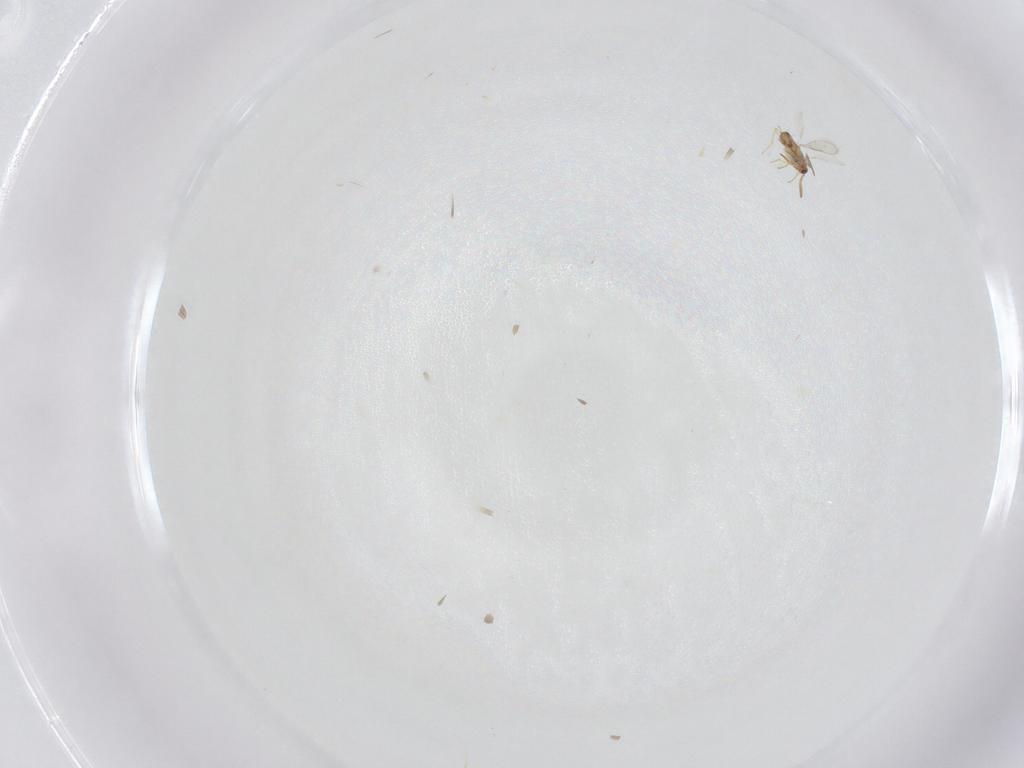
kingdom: Animalia
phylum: Arthropoda
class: Insecta
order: Hymenoptera
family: Aphelinidae
